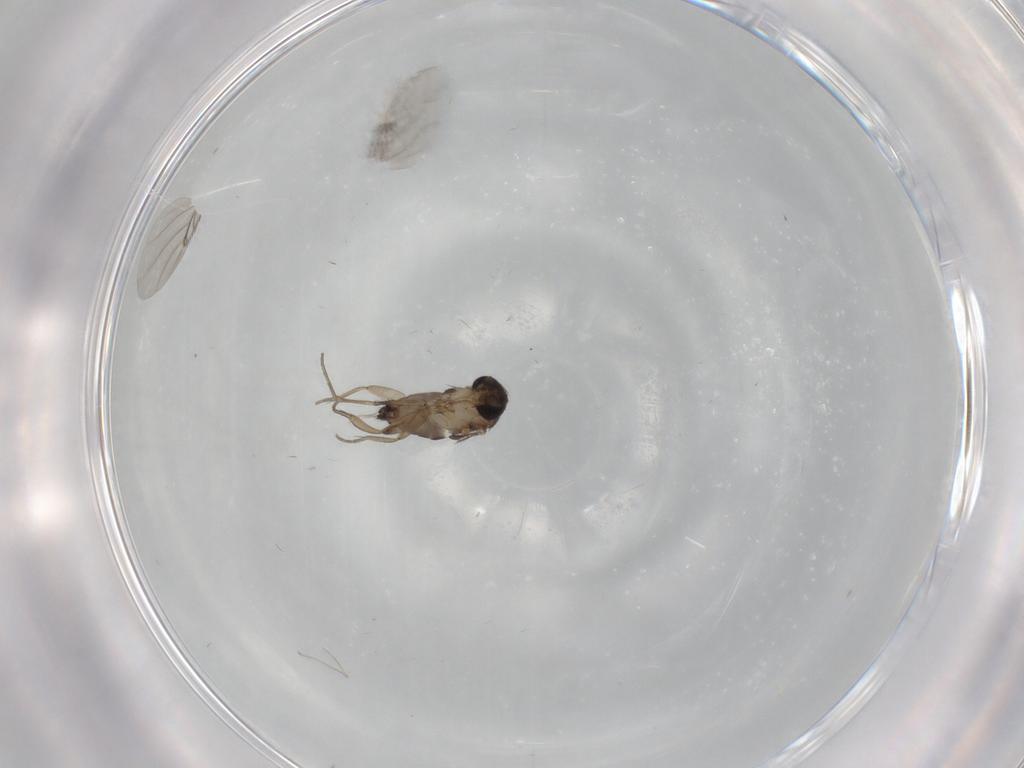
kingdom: Animalia
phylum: Arthropoda
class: Insecta
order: Diptera
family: Phoridae
